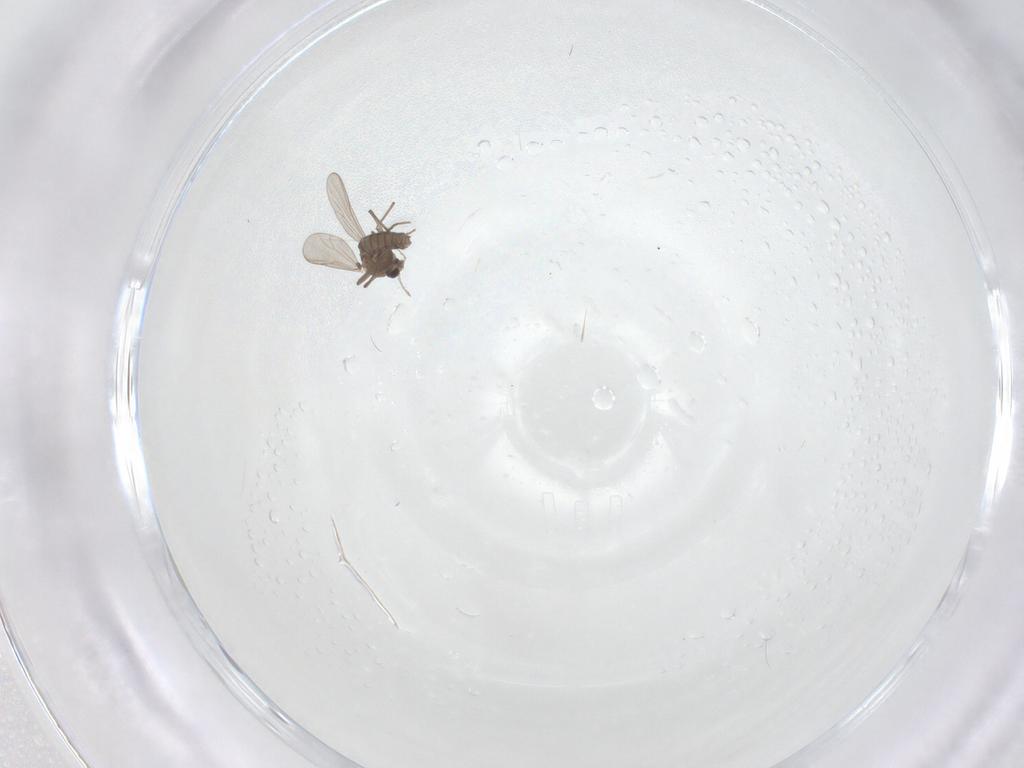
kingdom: Animalia
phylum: Arthropoda
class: Insecta
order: Diptera
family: Chironomidae
